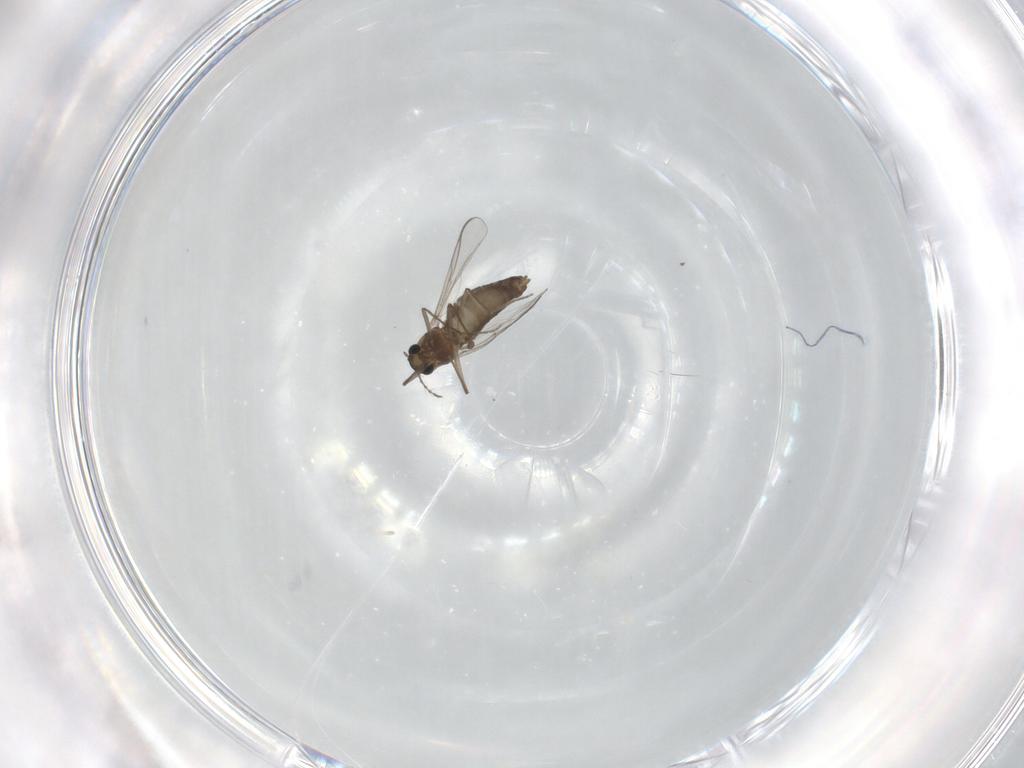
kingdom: Animalia
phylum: Arthropoda
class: Insecta
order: Diptera
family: Chironomidae
